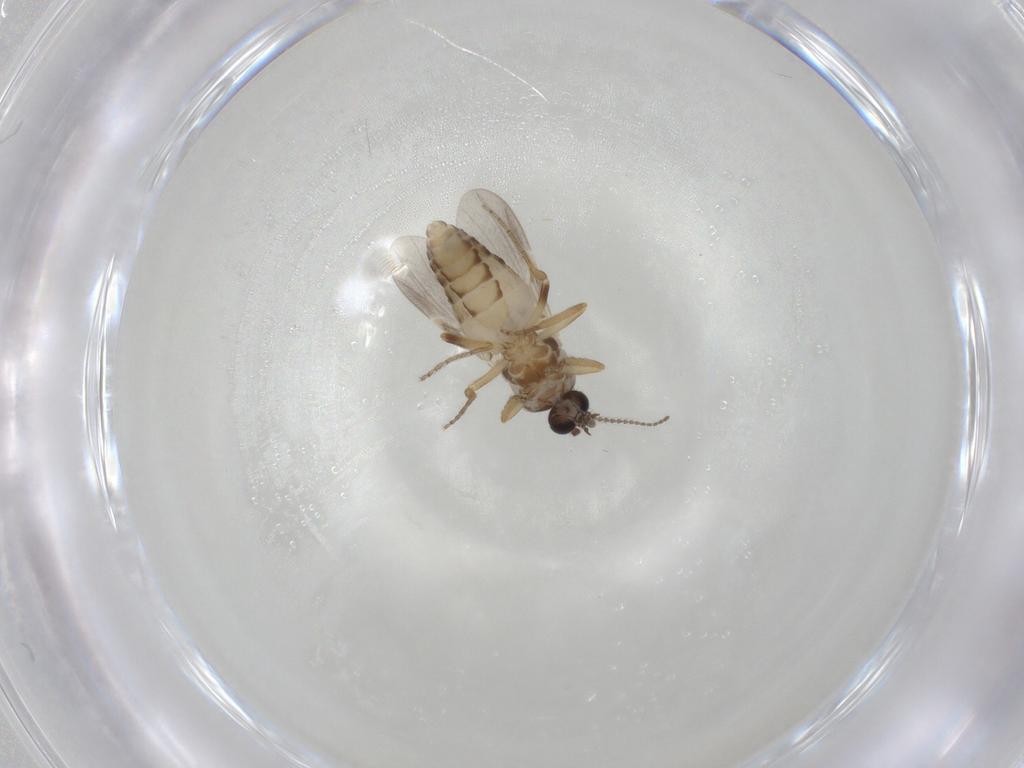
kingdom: Animalia
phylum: Arthropoda
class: Insecta
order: Diptera
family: Ceratopogonidae
